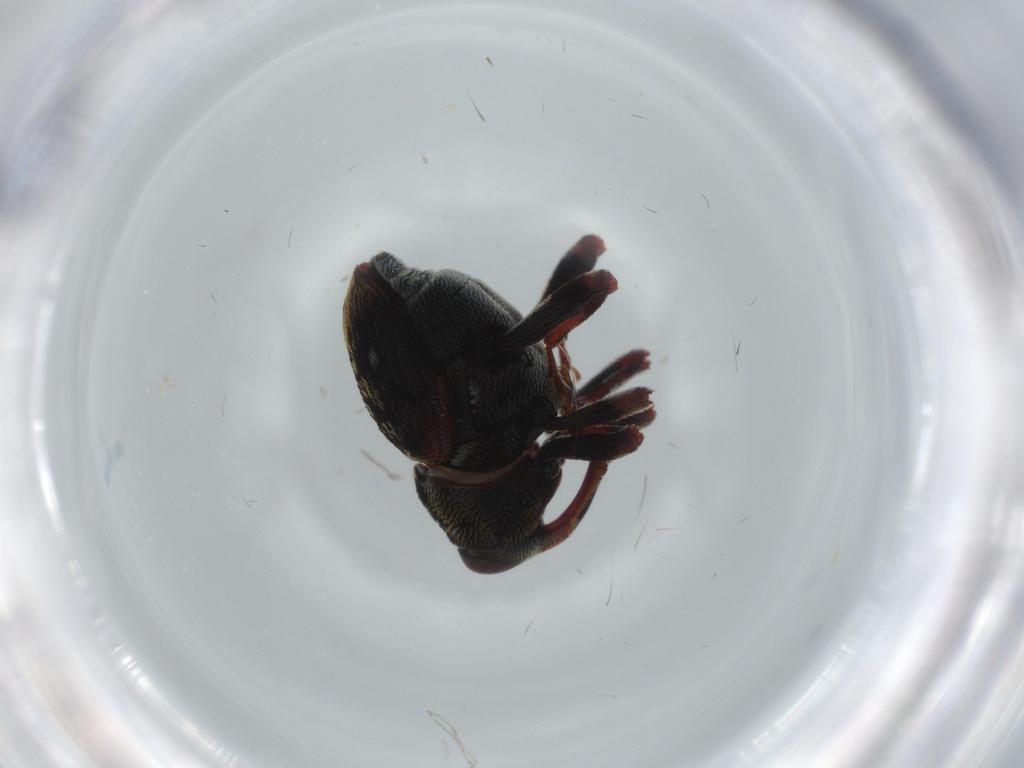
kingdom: Animalia
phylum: Arthropoda
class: Insecta
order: Coleoptera
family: Curculionidae
